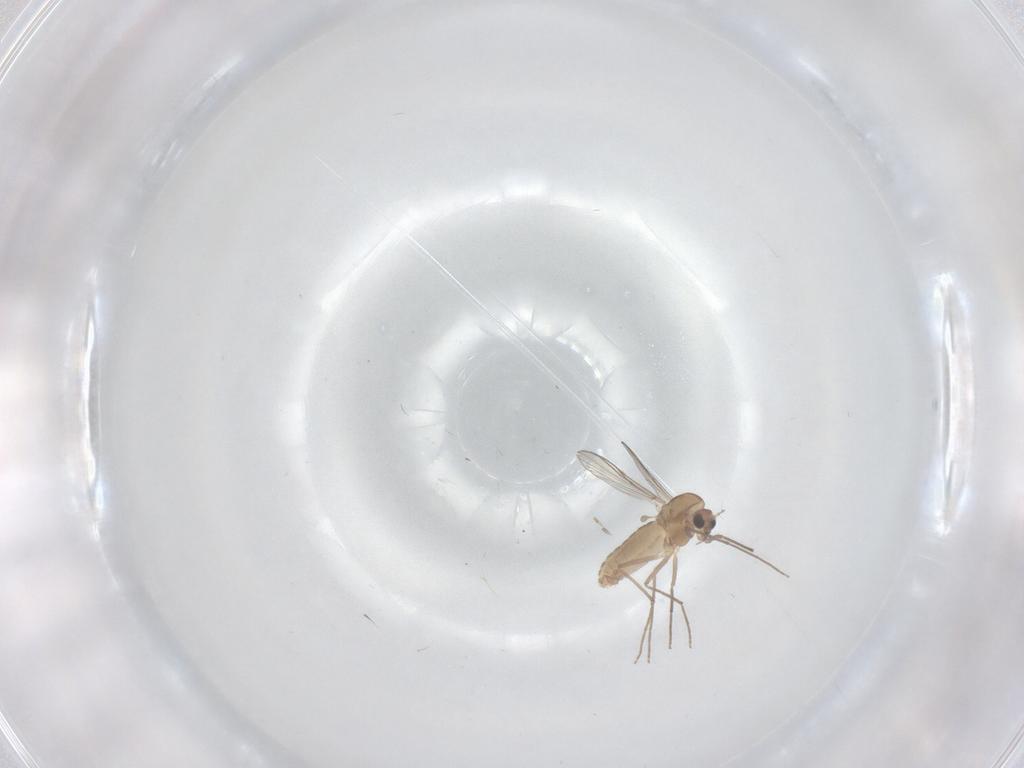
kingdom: Animalia
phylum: Arthropoda
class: Insecta
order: Diptera
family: Chironomidae
